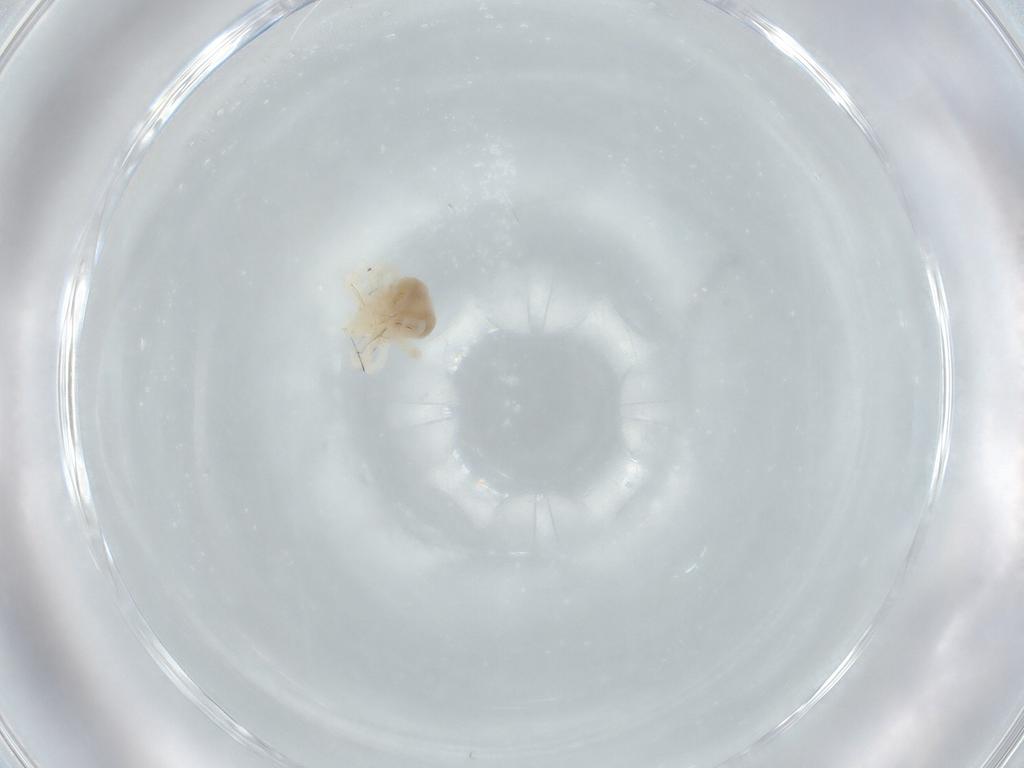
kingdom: Animalia
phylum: Arthropoda
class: Arachnida
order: Trombidiformes
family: Anystidae
